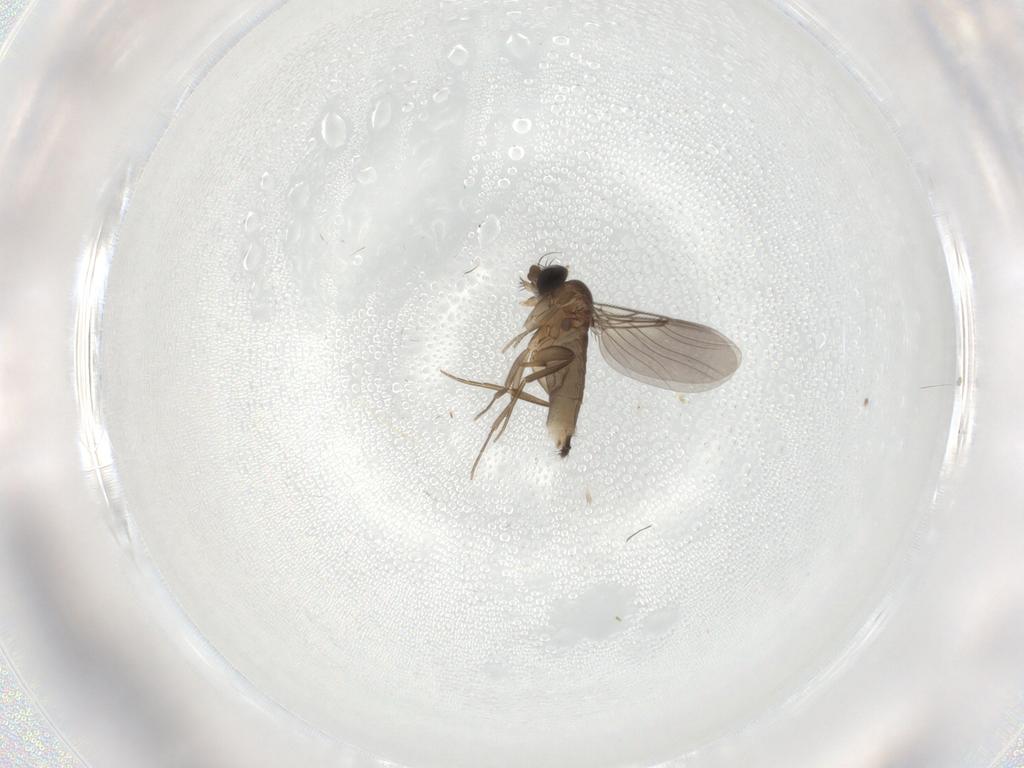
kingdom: Animalia
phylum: Arthropoda
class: Insecta
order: Diptera
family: Phoridae
